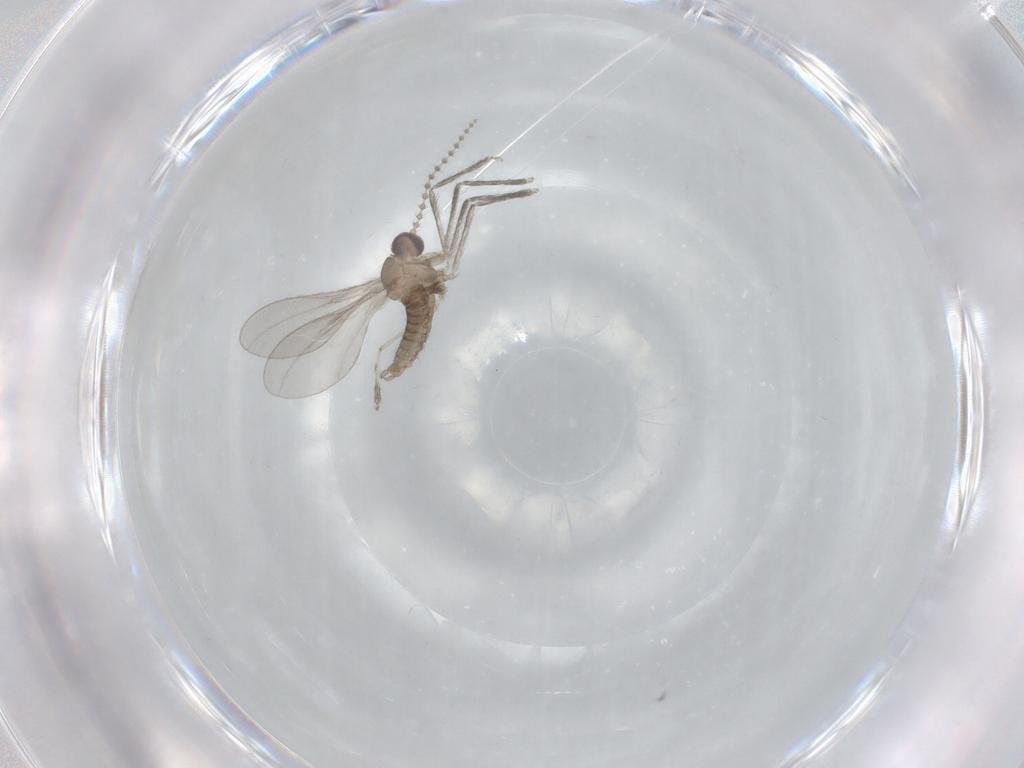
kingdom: Animalia
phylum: Arthropoda
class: Insecta
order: Diptera
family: Cecidomyiidae
